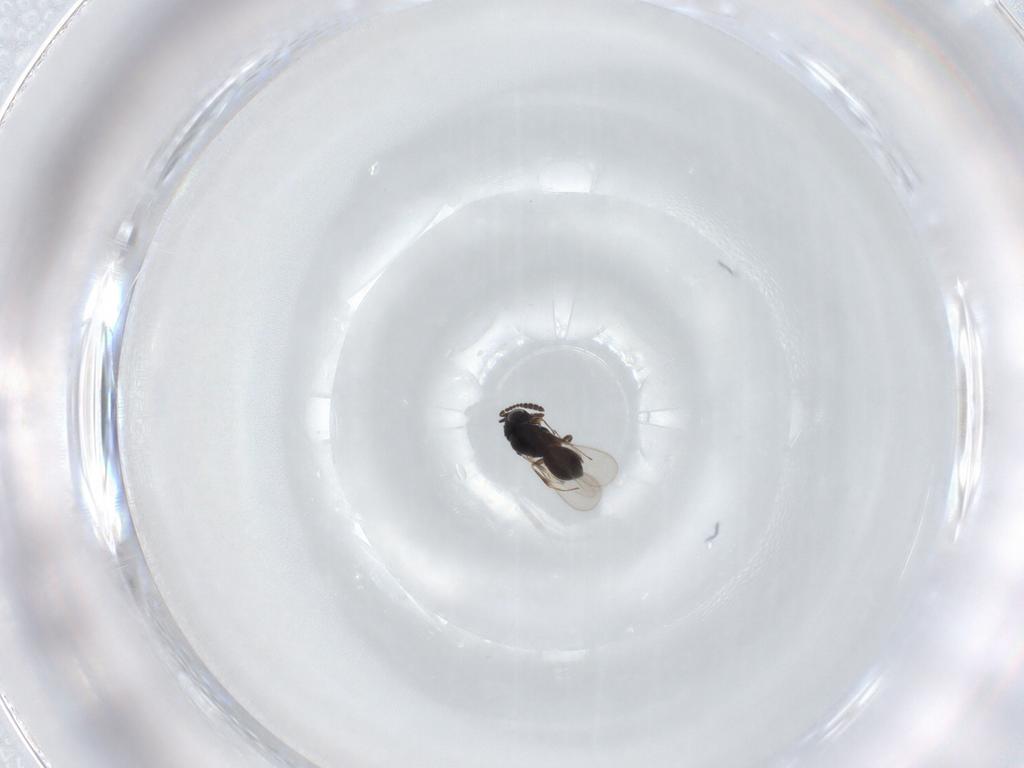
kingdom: Animalia
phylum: Arthropoda
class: Insecta
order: Hymenoptera
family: Scelionidae
